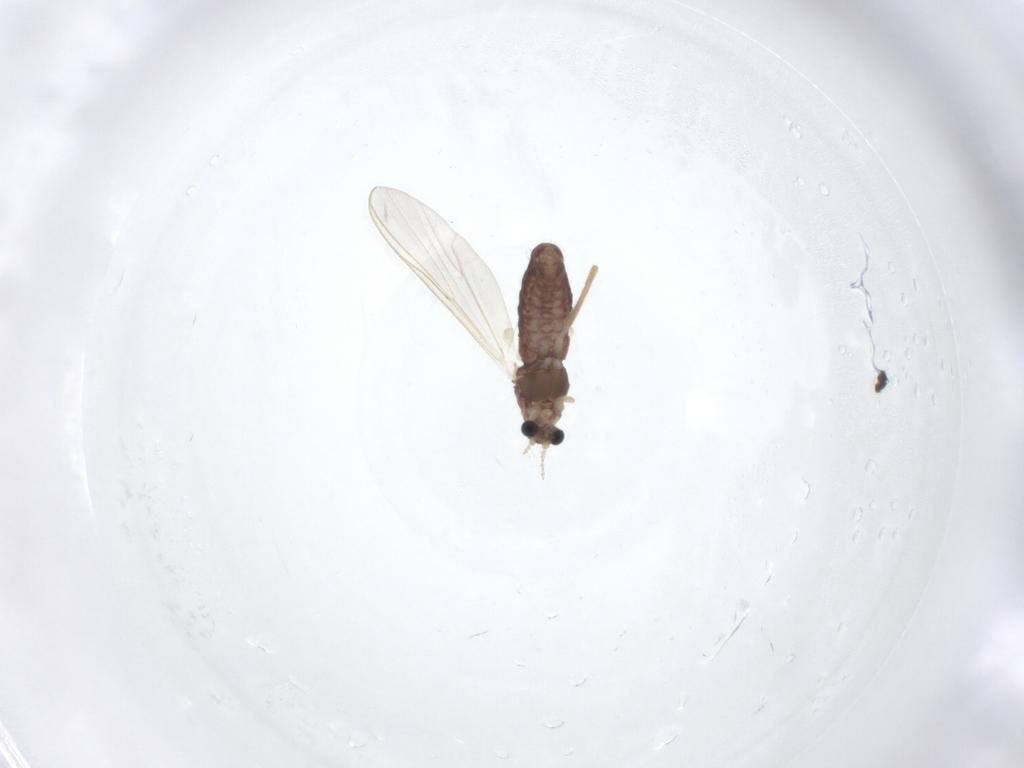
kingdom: Animalia
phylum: Arthropoda
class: Insecta
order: Diptera
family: Chironomidae
